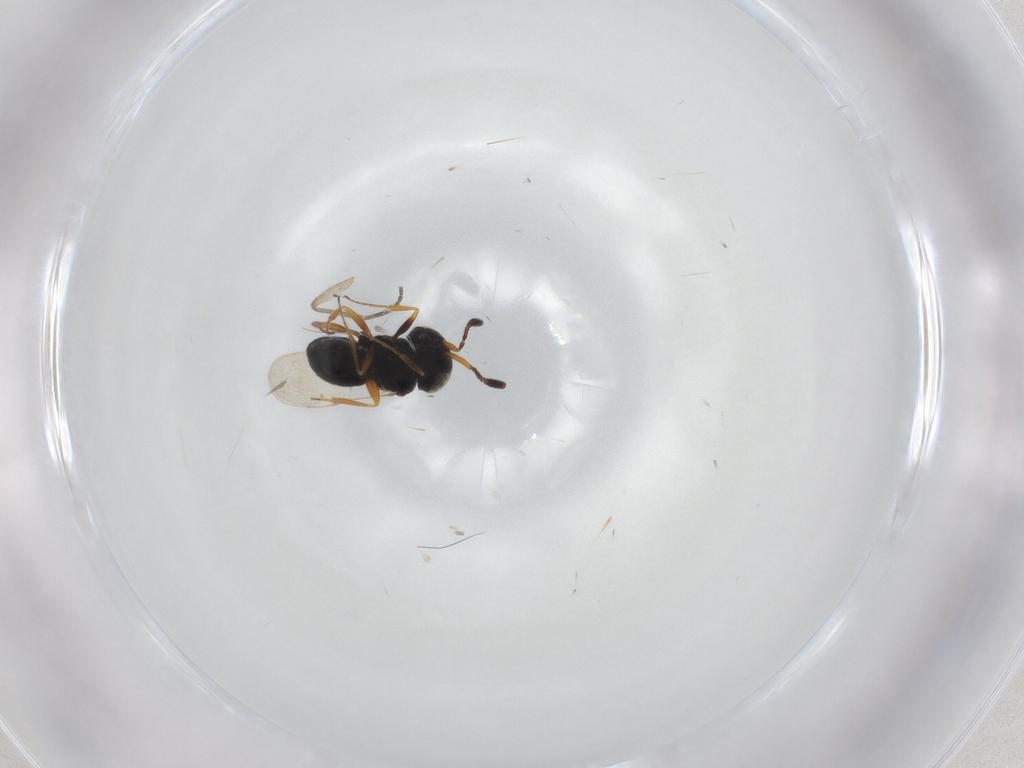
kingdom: Animalia
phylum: Arthropoda
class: Insecta
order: Hymenoptera
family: Scelionidae
